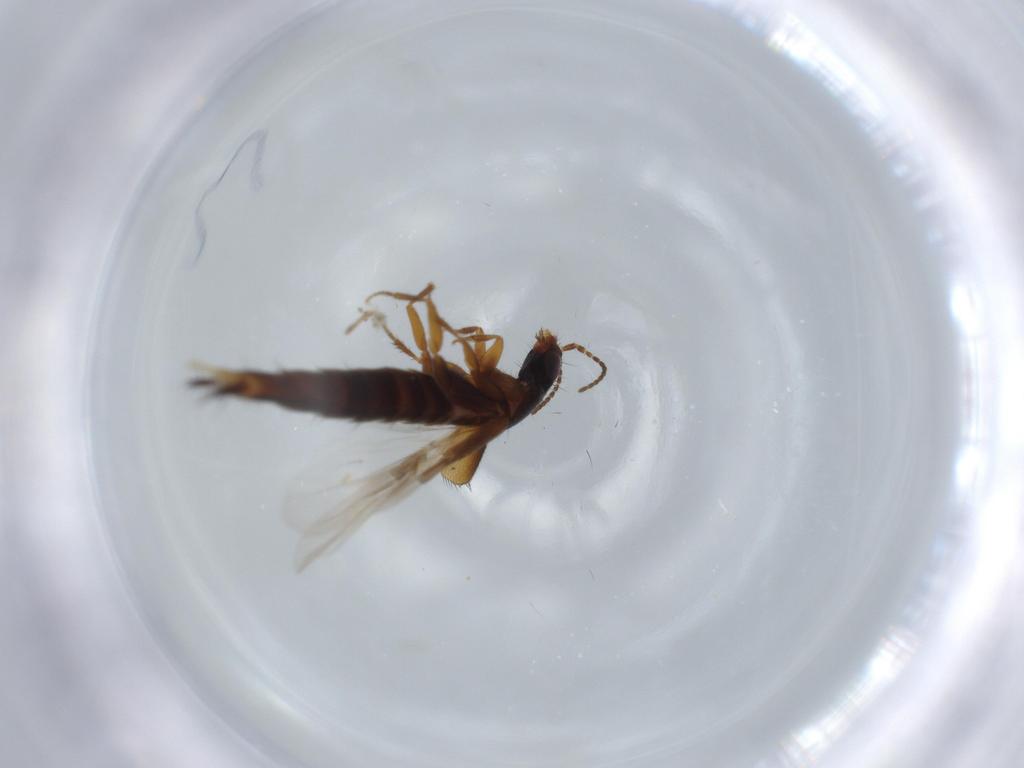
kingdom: Animalia
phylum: Arthropoda
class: Insecta
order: Coleoptera
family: Staphylinidae
